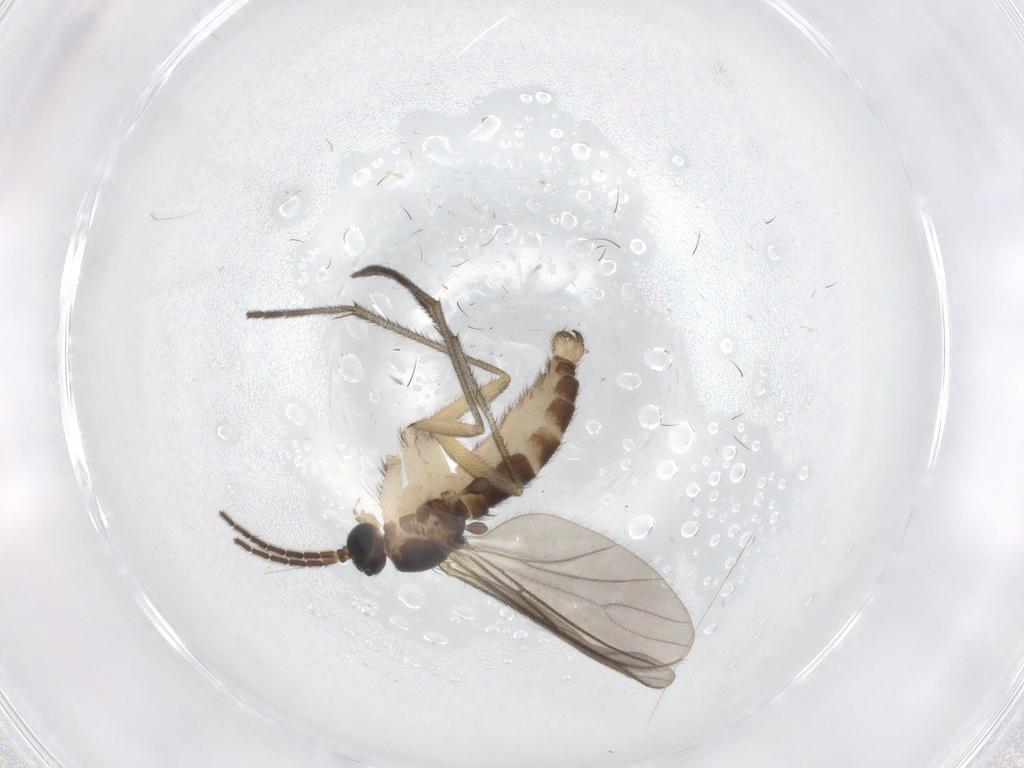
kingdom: Animalia
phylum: Arthropoda
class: Insecta
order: Diptera
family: Sciaridae
